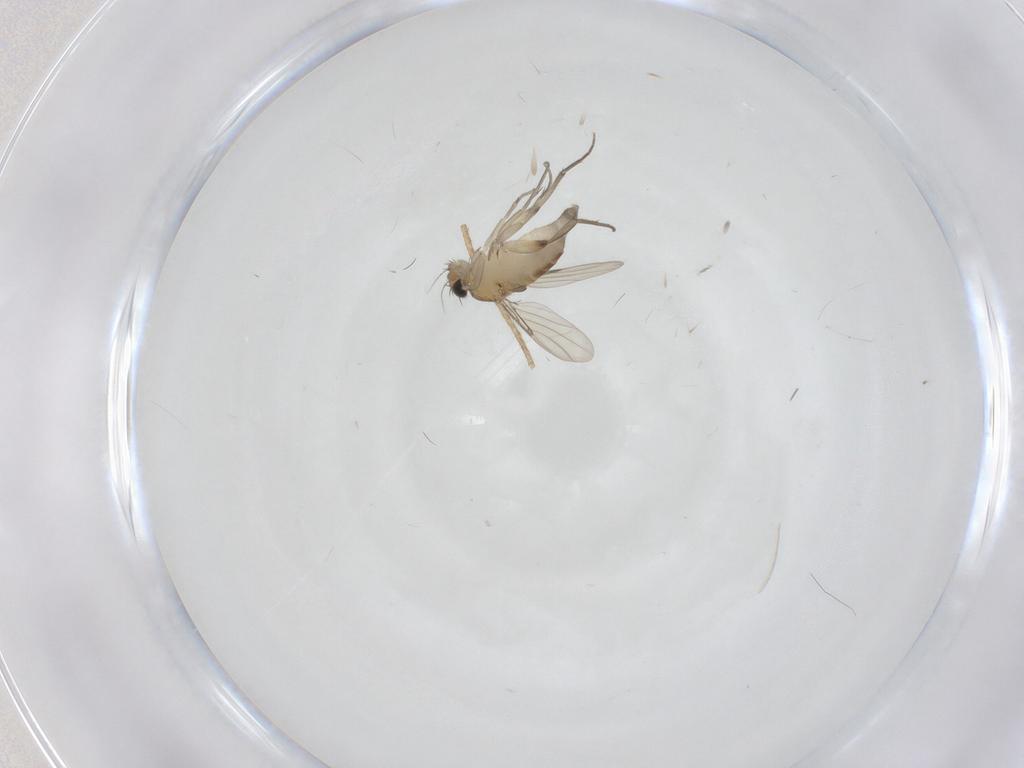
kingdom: Animalia
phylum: Arthropoda
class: Insecta
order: Diptera
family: Phoridae
